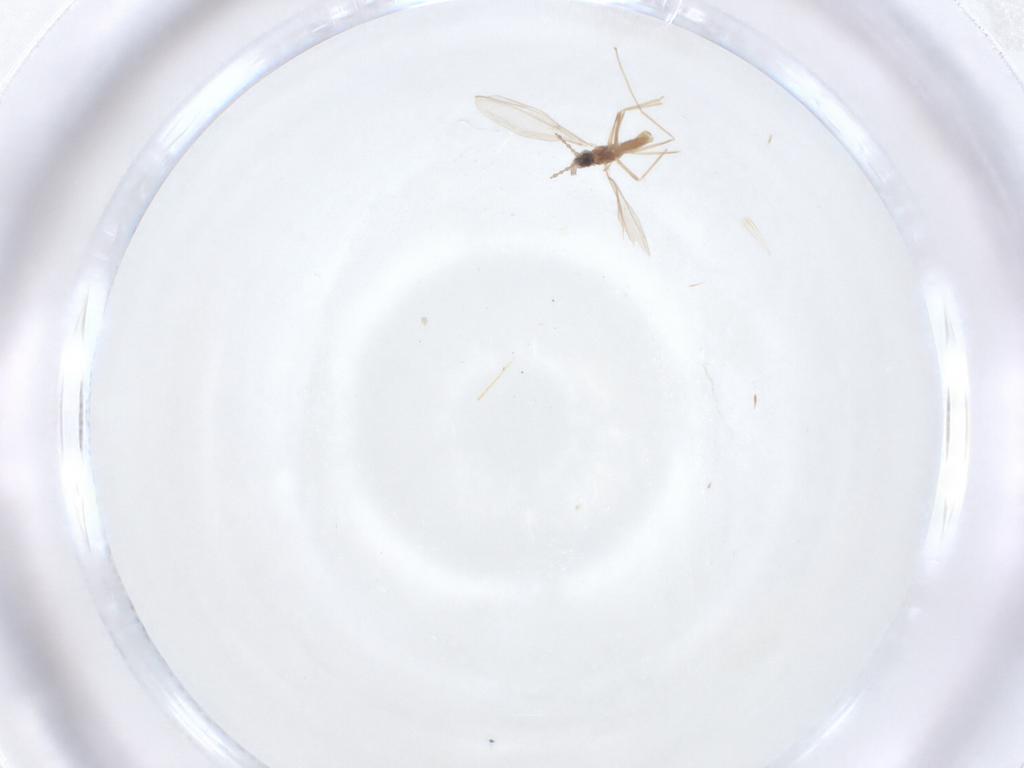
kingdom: Animalia
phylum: Arthropoda
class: Insecta
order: Diptera
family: Cecidomyiidae
